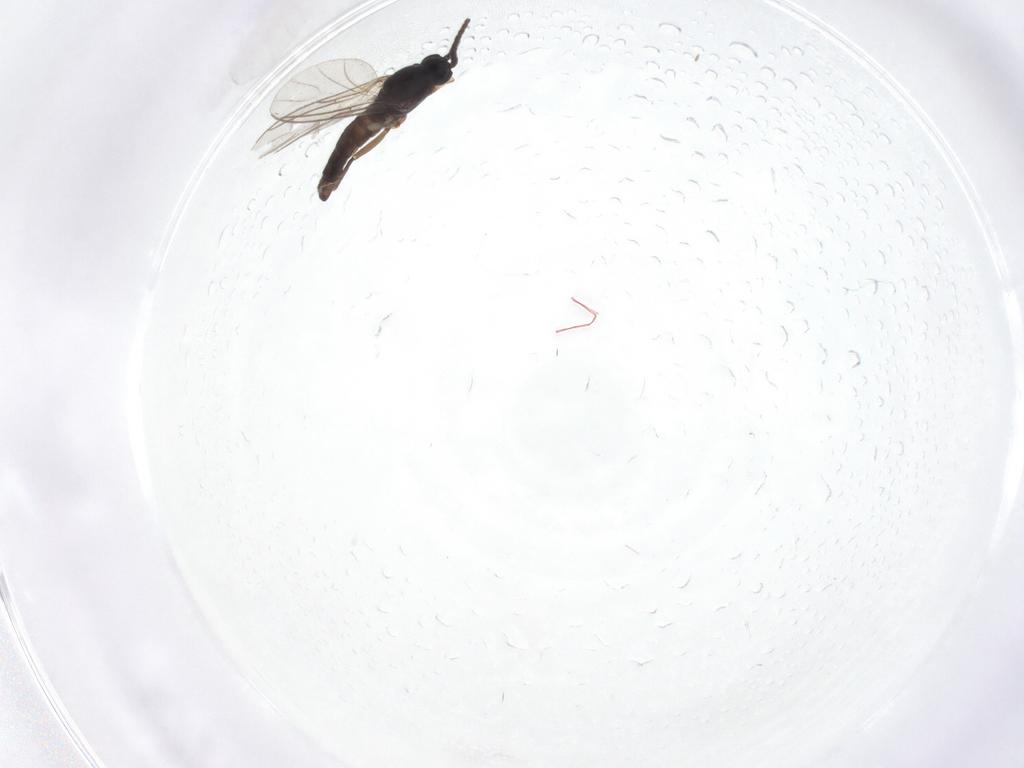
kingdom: Animalia
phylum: Arthropoda
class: Insecta
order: Diptera
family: Sciaridae
